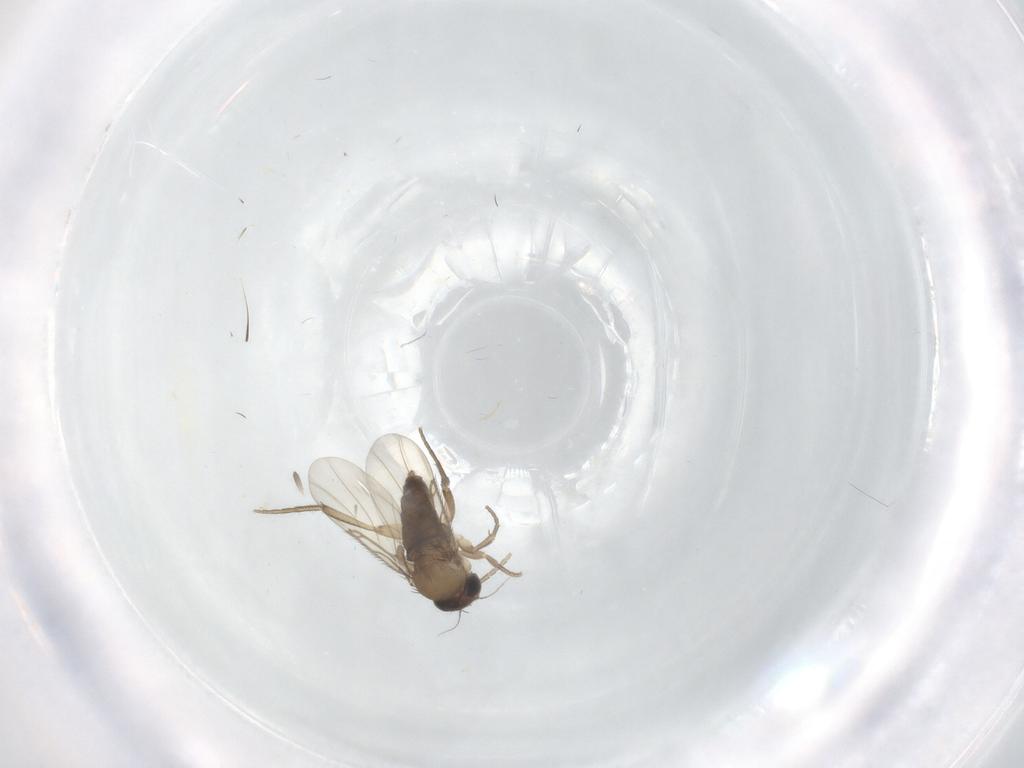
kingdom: Animalia
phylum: Arthropoda
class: Insecta
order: Diptera
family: Phoridae
